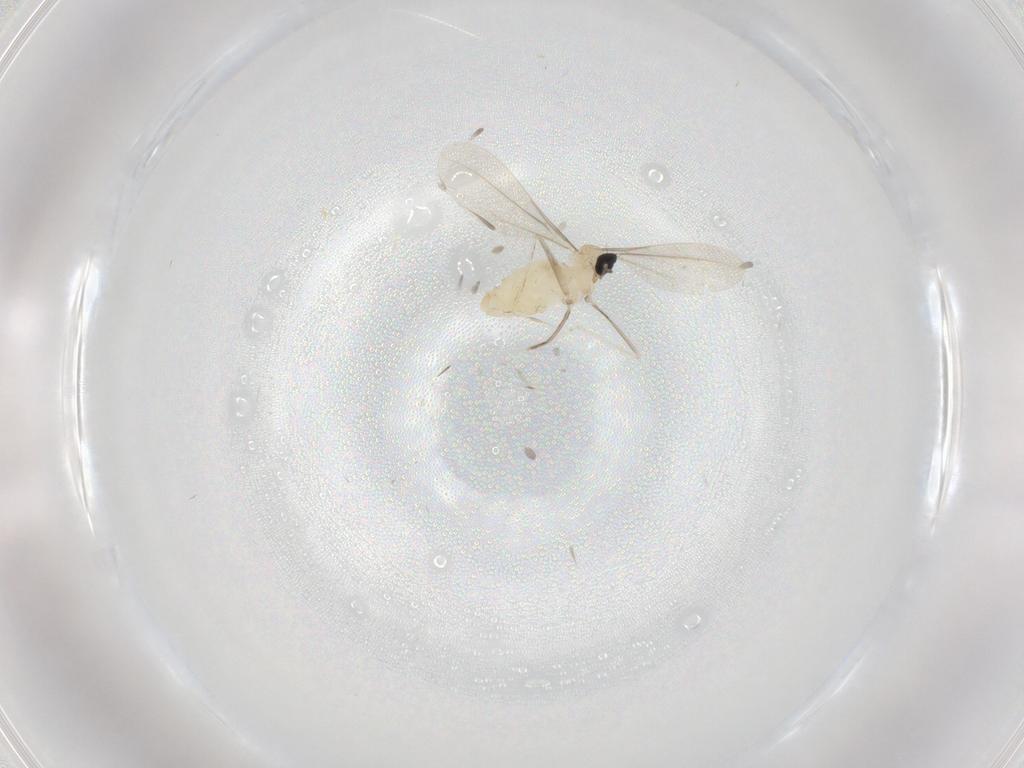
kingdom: Animalia
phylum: Arthropoda
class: Insecta
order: Diptera
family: Cecidomyiidae
